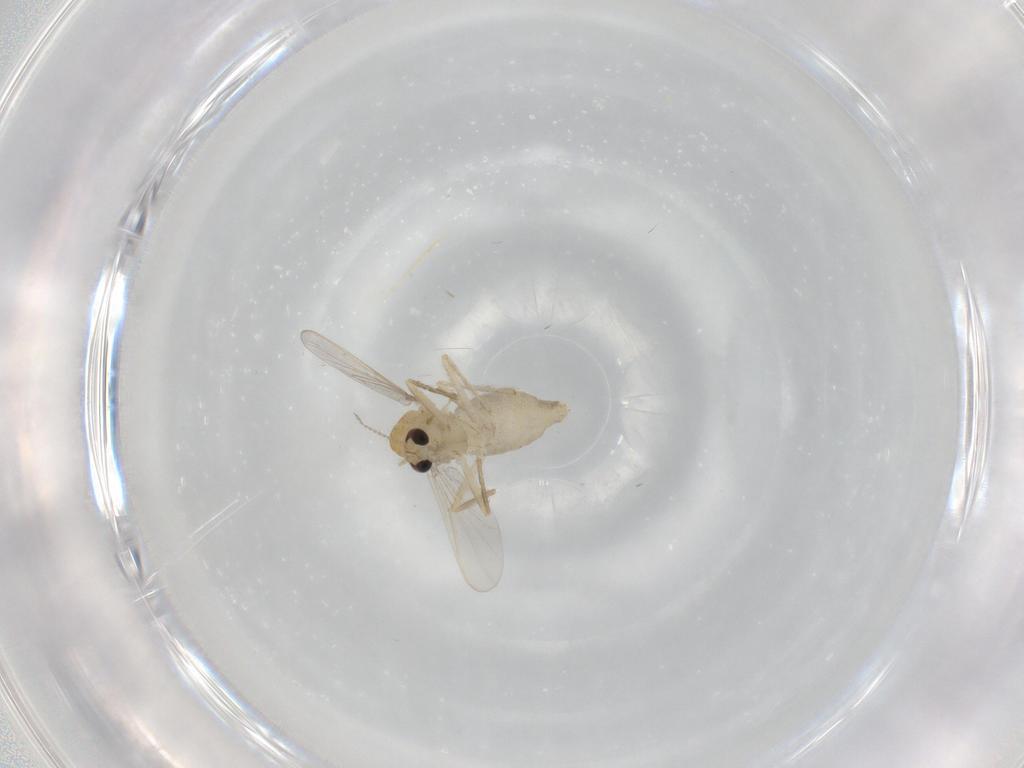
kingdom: Animalia
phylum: Arthropoda
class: Insecta
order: Diptera
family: Chironomidae
